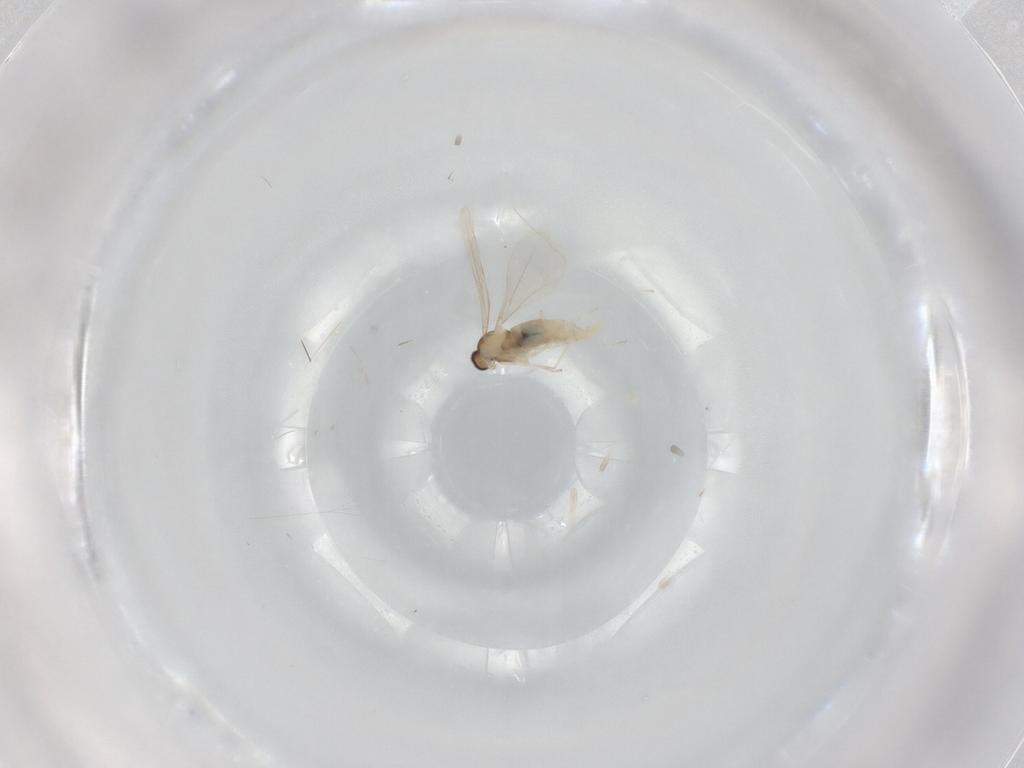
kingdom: Animalia
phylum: Arthropoda
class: Insecta
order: Diptera
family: Cecidomyiidae
